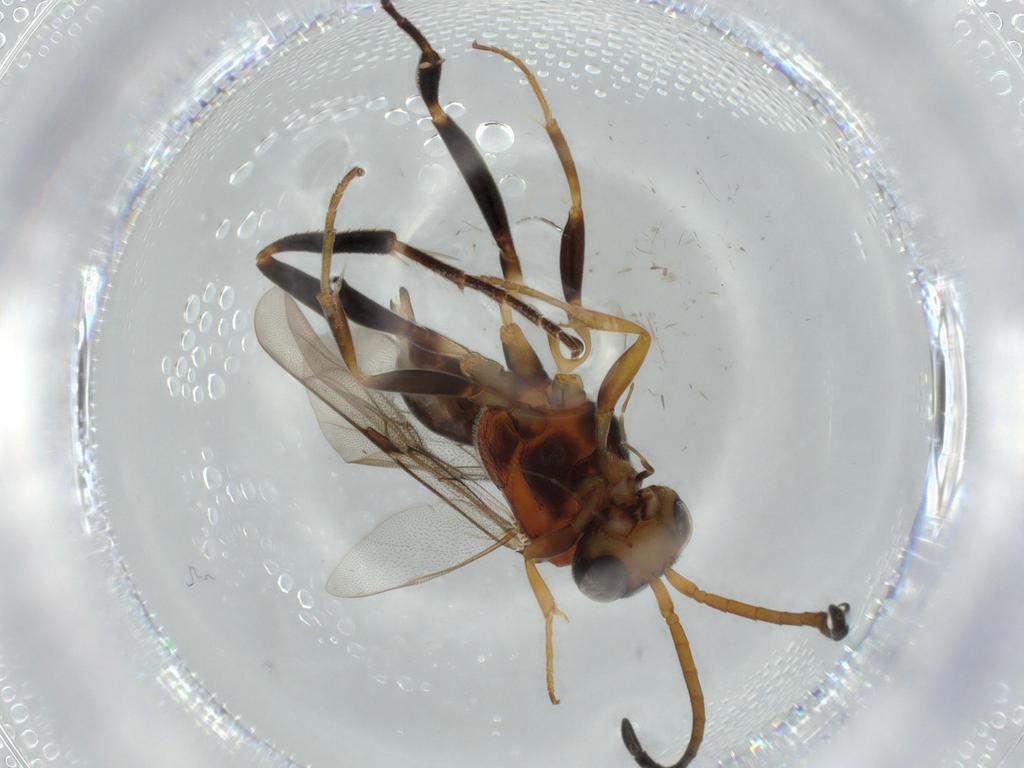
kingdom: Animalia
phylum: Arthropoda
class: Insecta
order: Hymenoptera
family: Evaniidae
